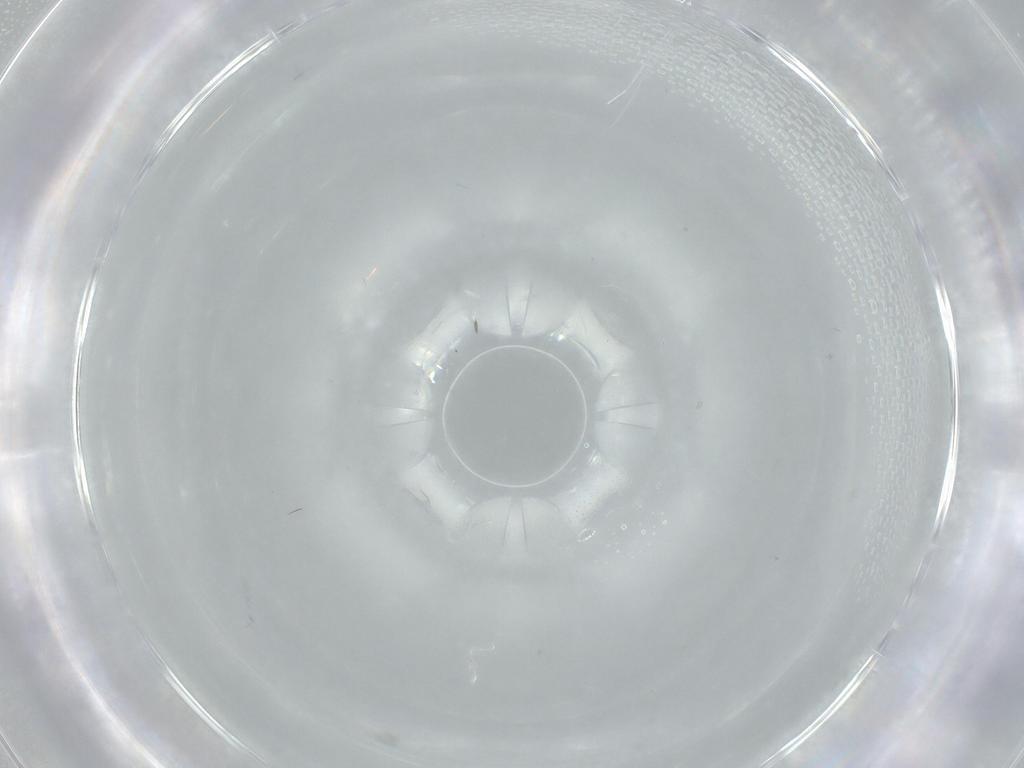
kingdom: Animalia
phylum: Arthropoda
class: Insecta
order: Diptera
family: Cecidomyiidae
